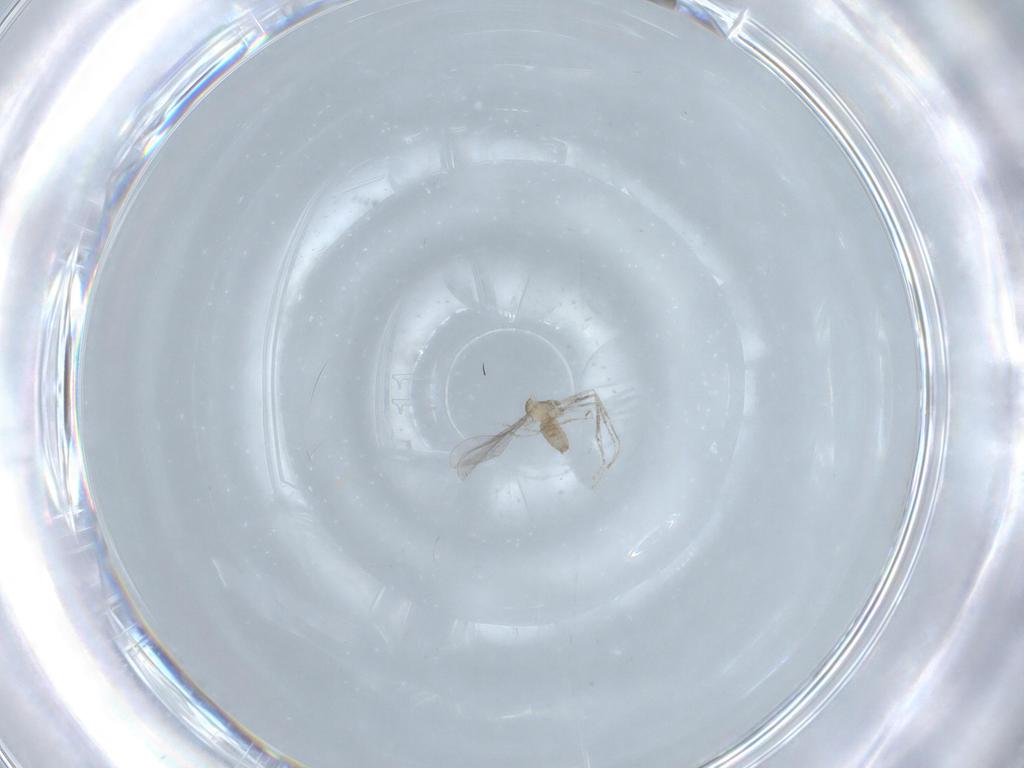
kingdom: Animalia
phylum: Arthropoda
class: Insecta
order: Diptera
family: Cecidomyiidae
